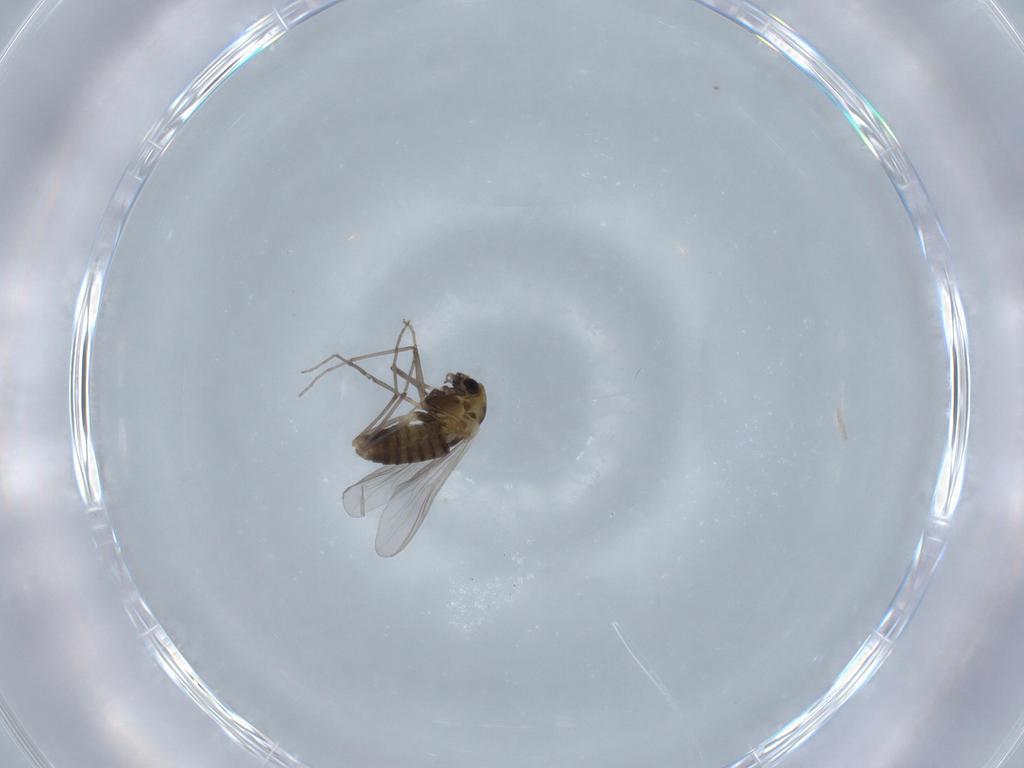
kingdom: Animalia
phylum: Arthropoda
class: Insecta
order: Diptera
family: Chironomidae
